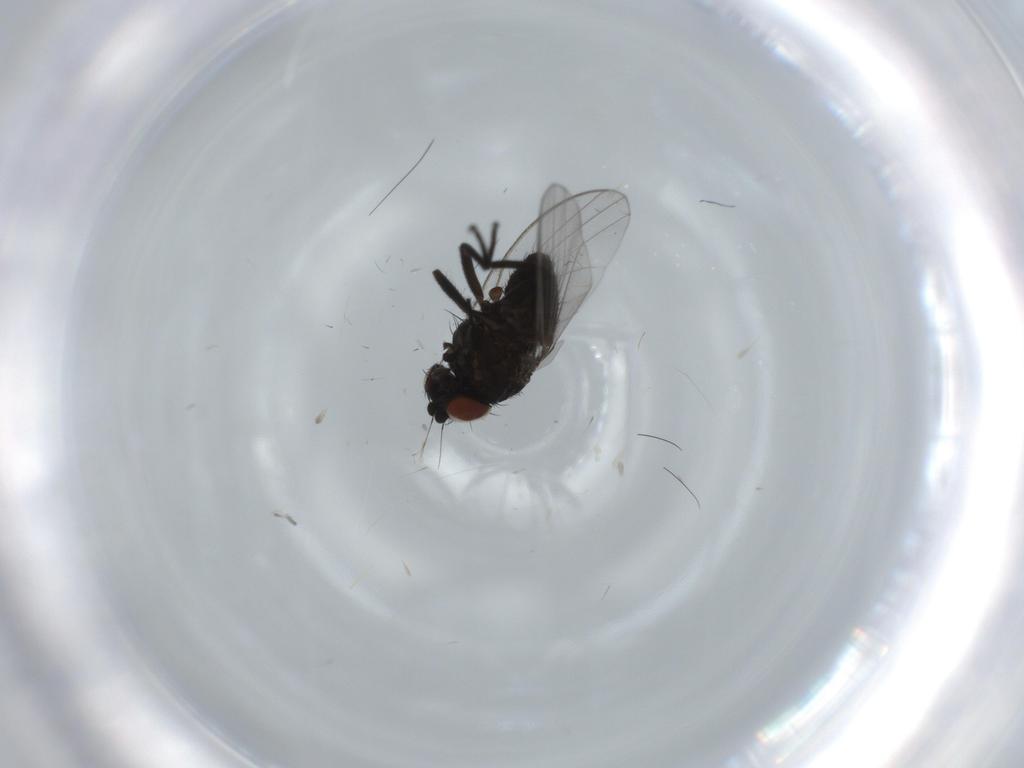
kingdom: Animalia
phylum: Arthropoda
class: Insecta
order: Diptera
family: Milichiidae
